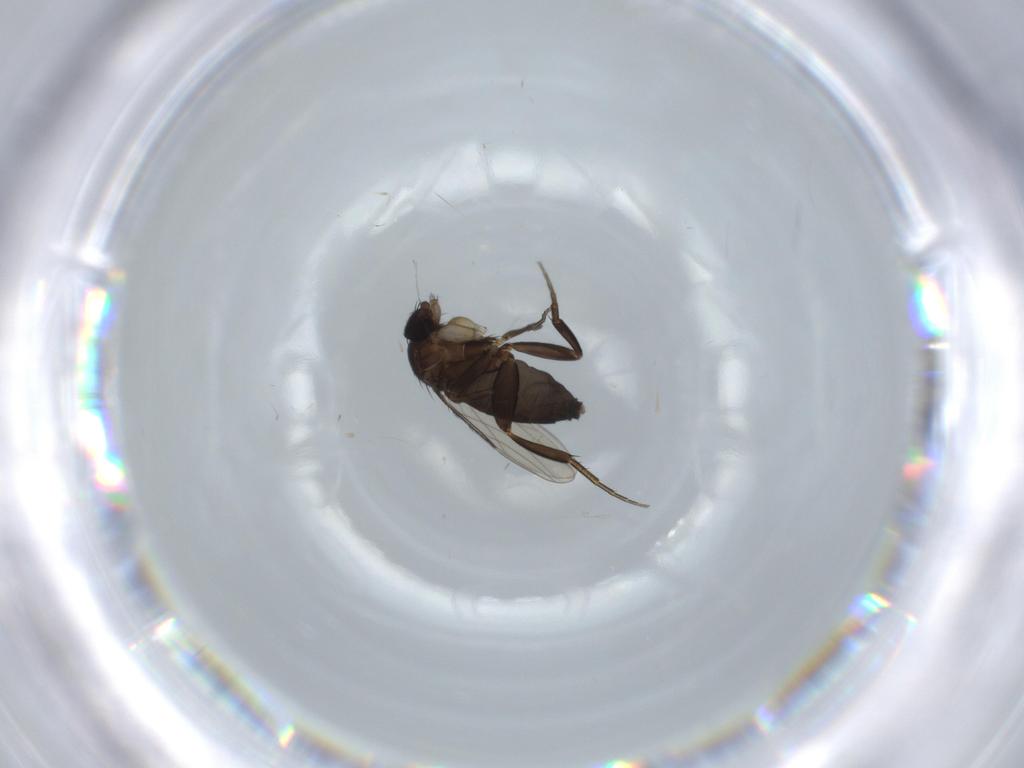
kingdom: Animalia
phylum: Arthropoda
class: Insecta
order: Diptera
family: Phoridae
